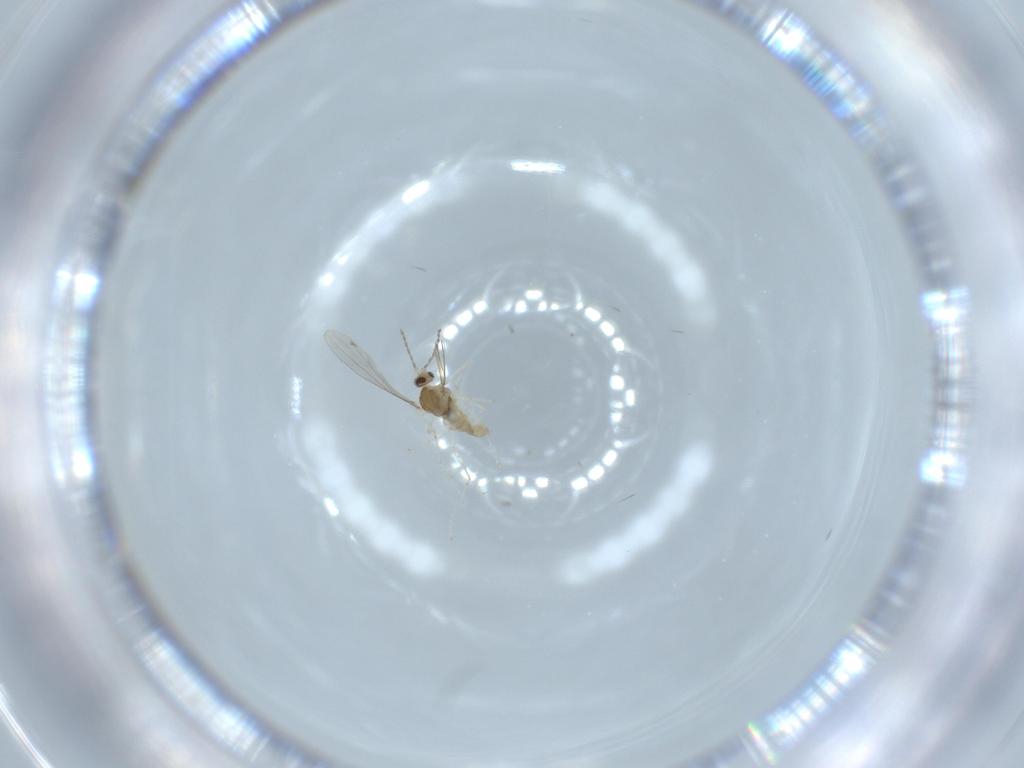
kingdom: Animalia
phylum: Arthropoda
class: Insecta
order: Diptera
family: Cecidomyiidae
